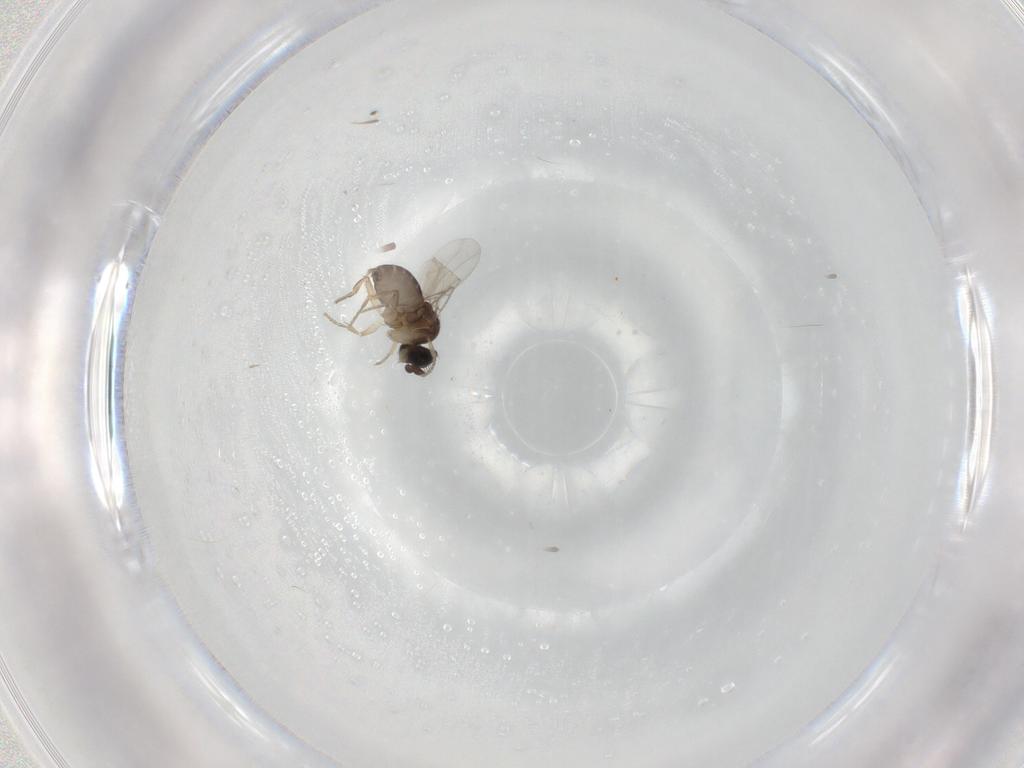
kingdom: Animalia
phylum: Arthropoda
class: Insecta
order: Diptera
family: Phoridae
